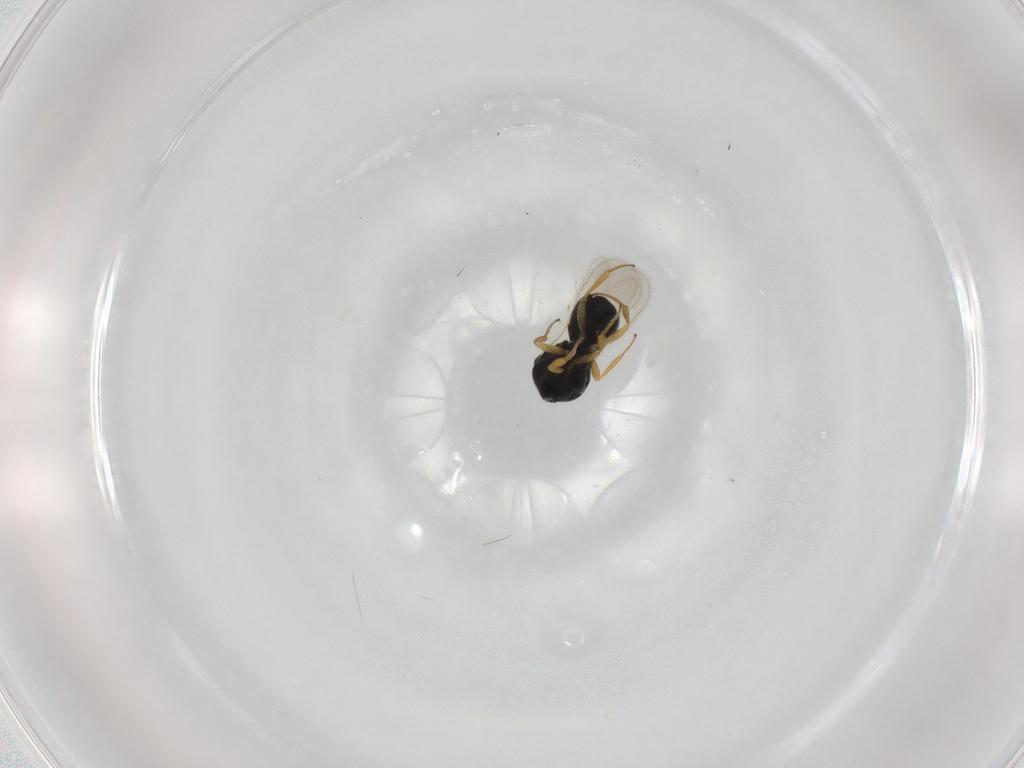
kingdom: Animalia
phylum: Arthropoda
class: Insecta
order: Hymenoptera
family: Scelionidae
